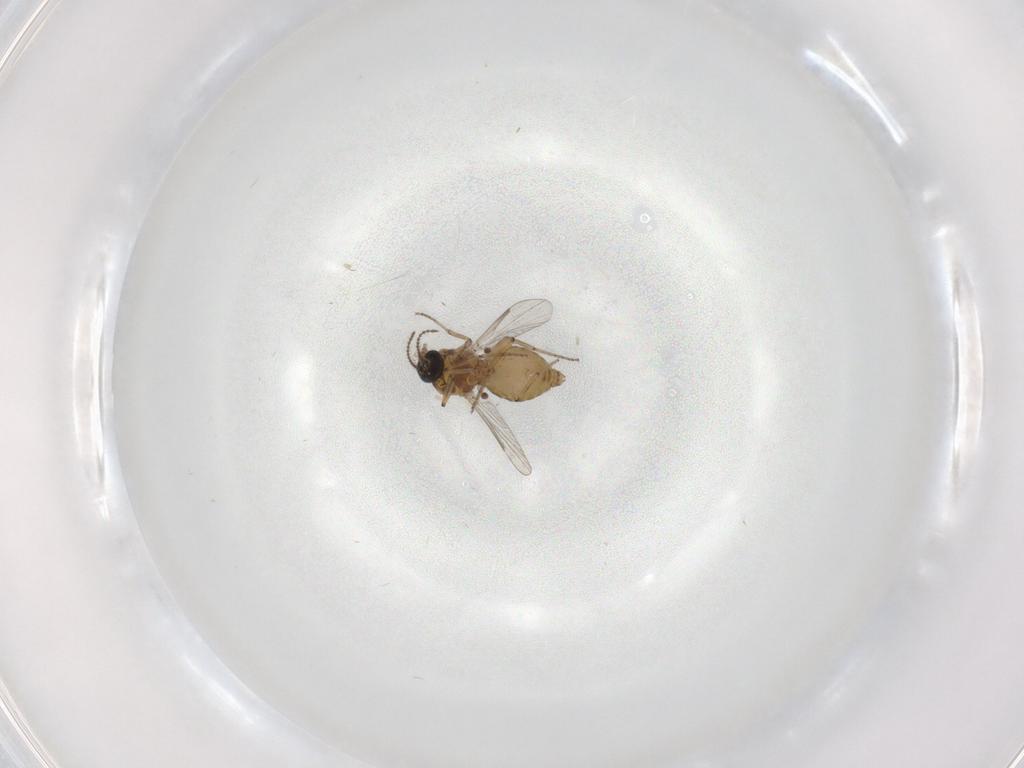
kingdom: Animalia
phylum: Arthropoda
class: Insecta
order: Diptera
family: Ceratopogonidae
